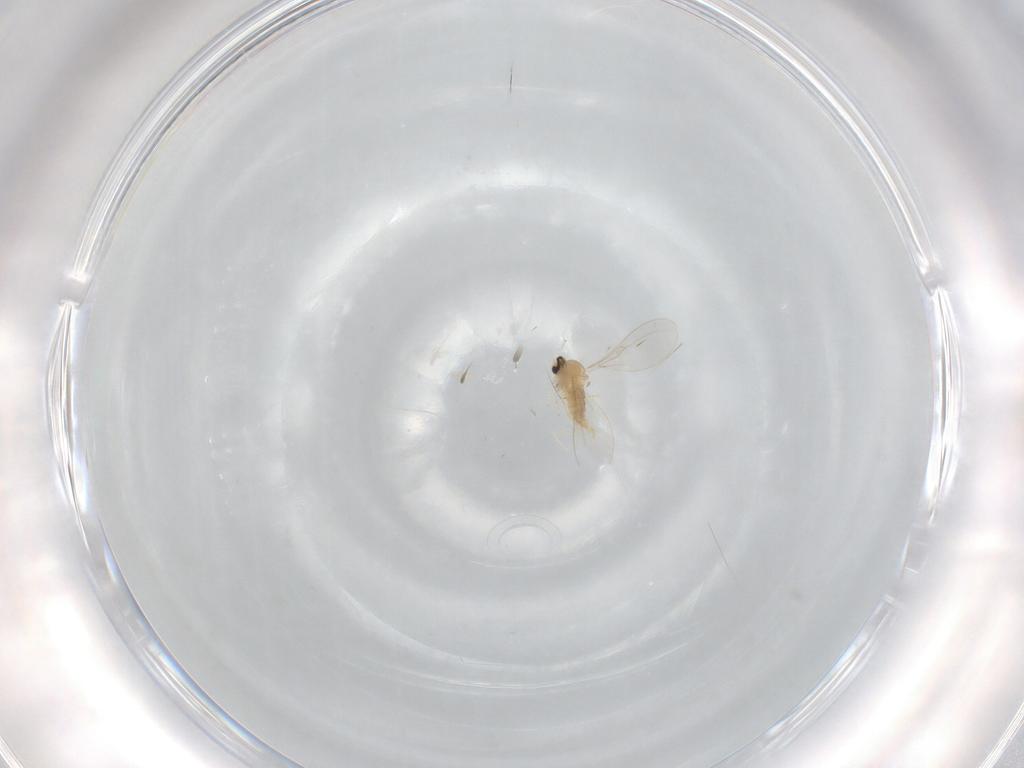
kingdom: Animalia
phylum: Arthropoda
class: Insecta
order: Diptera
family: Cecidomyiidae
